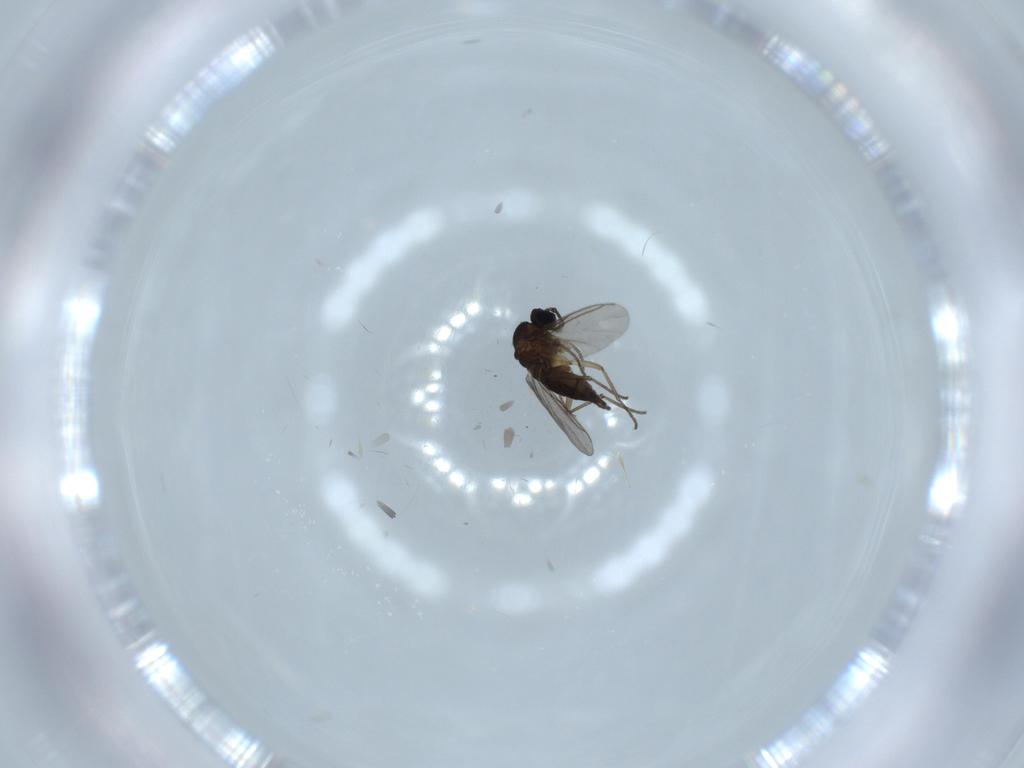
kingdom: Animalia
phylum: Arthropoda
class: Insecta
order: Diptera
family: Sciaridae
